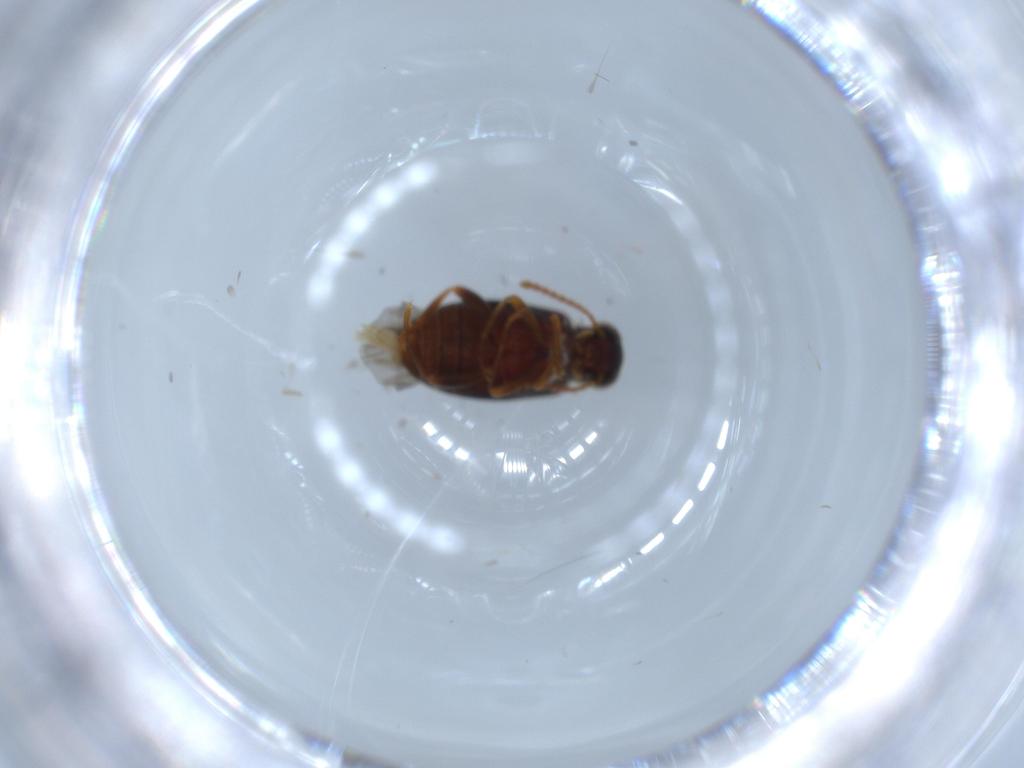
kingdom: Animalia
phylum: Arthropoda
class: Insecta
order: Coleoptera
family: Aderidae
